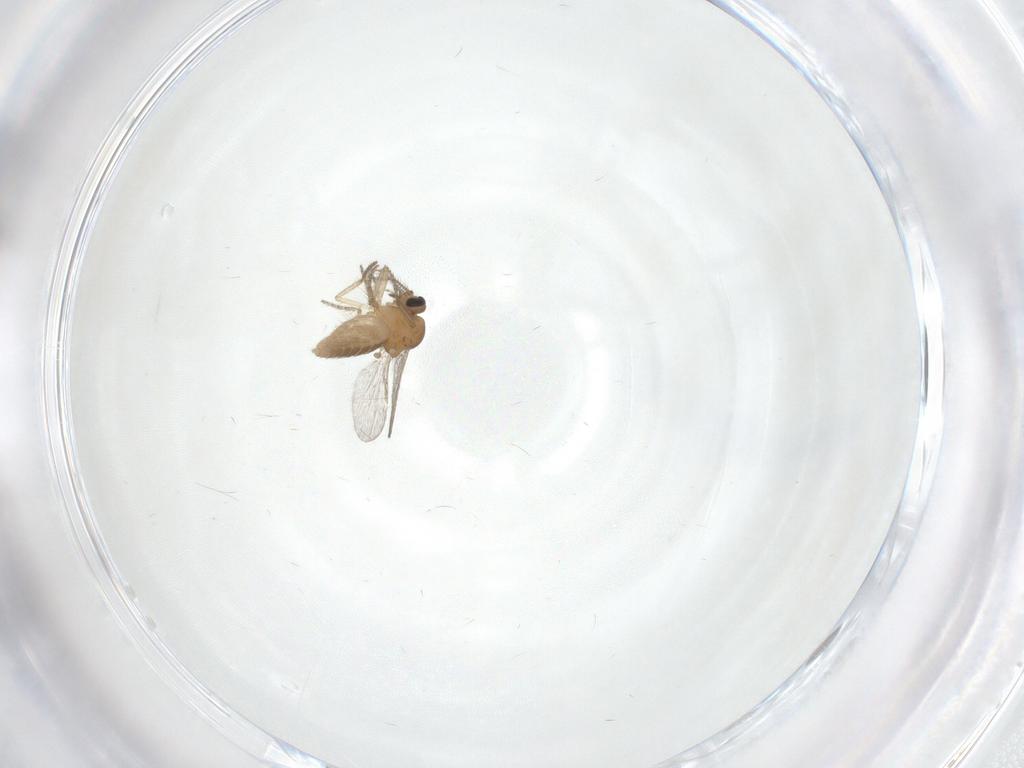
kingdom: Animalia
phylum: Arthropoda
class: Insecta
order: Diptera
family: Ceratopogonidae
